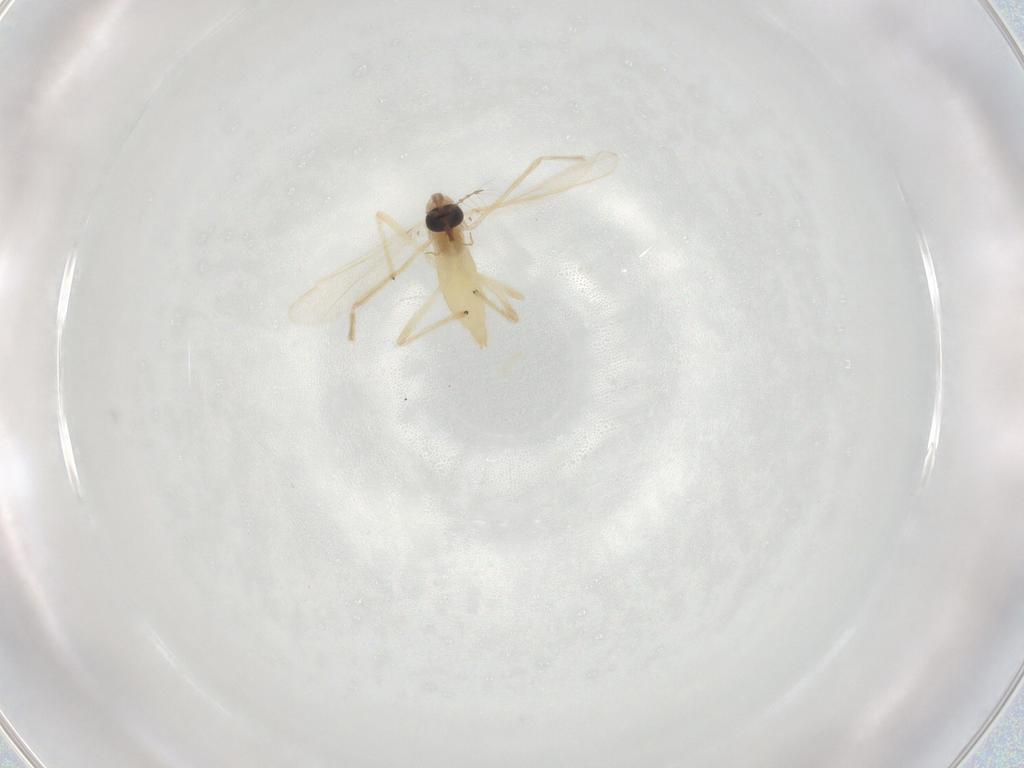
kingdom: Animalia
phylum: Arthropoda
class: Insecta
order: Diptera
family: Chironomidae
